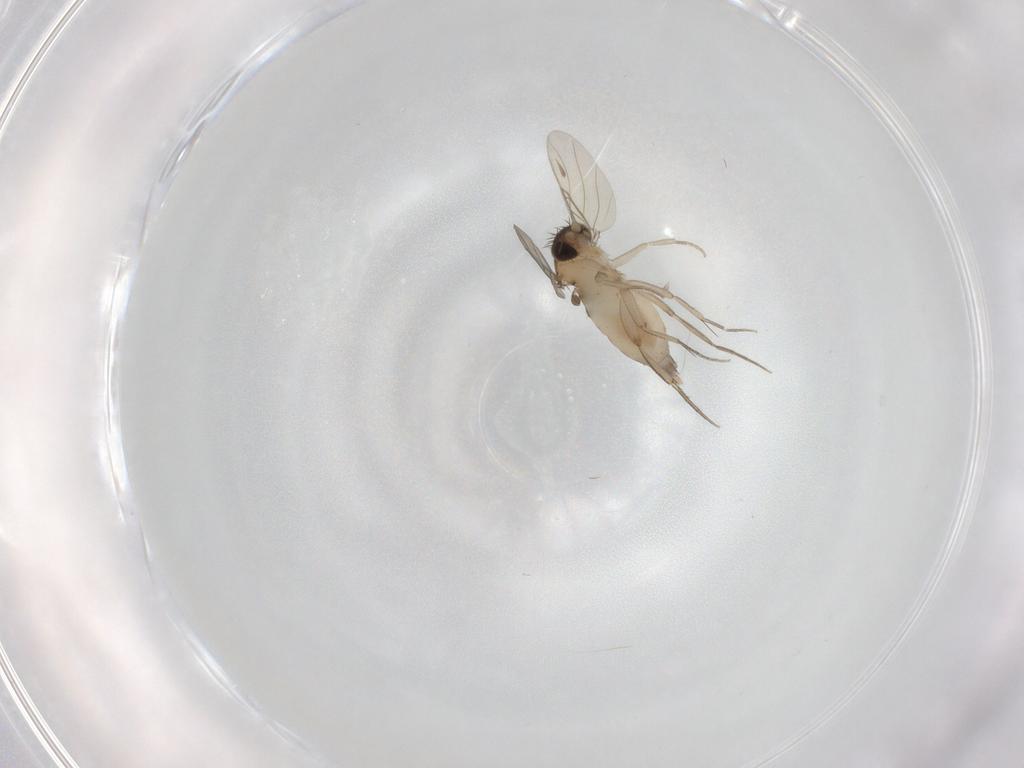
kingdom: Animalia
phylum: Arthropoda
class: Insecta
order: Diptera
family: Phoridae
